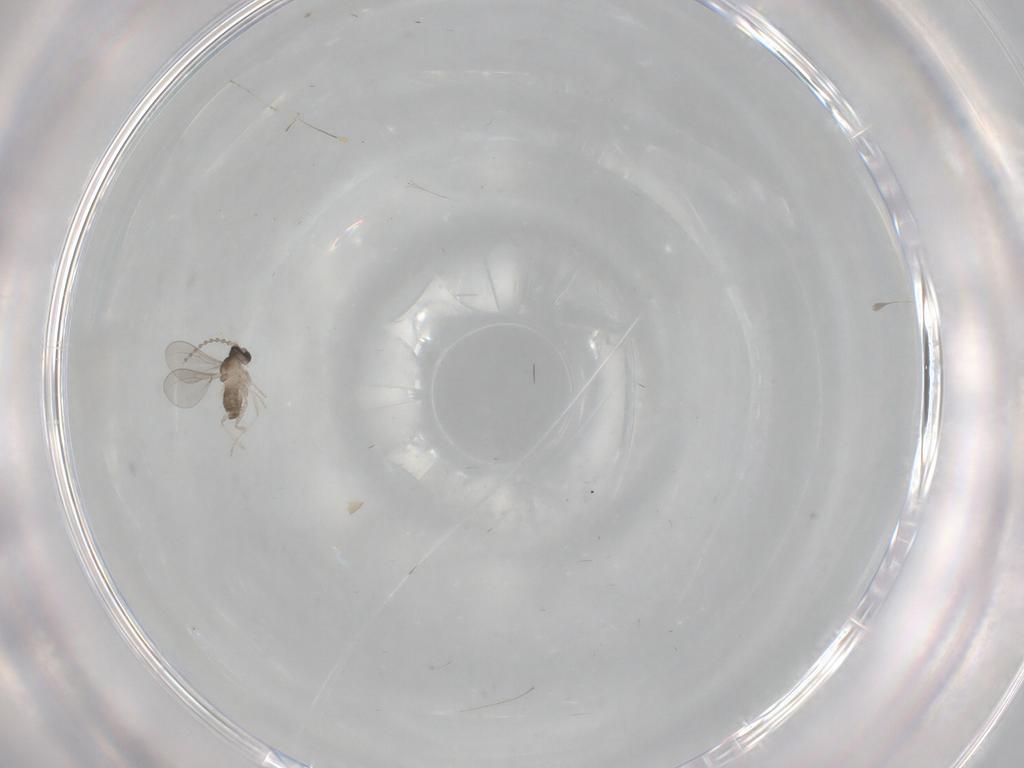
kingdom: Animalia
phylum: Arthropoda
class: Insecta
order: Diptera
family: Cecidomyiidae
